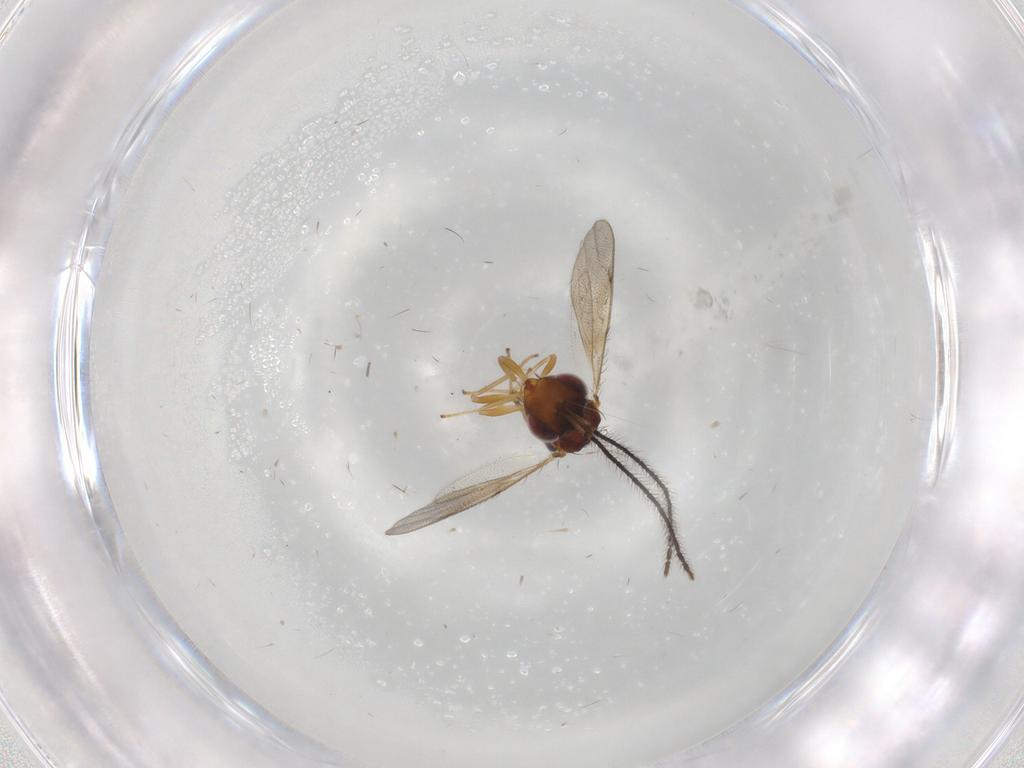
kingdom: Animalia
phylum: Arthropoda
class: Insecta
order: Hymenoptera
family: Diparidae
